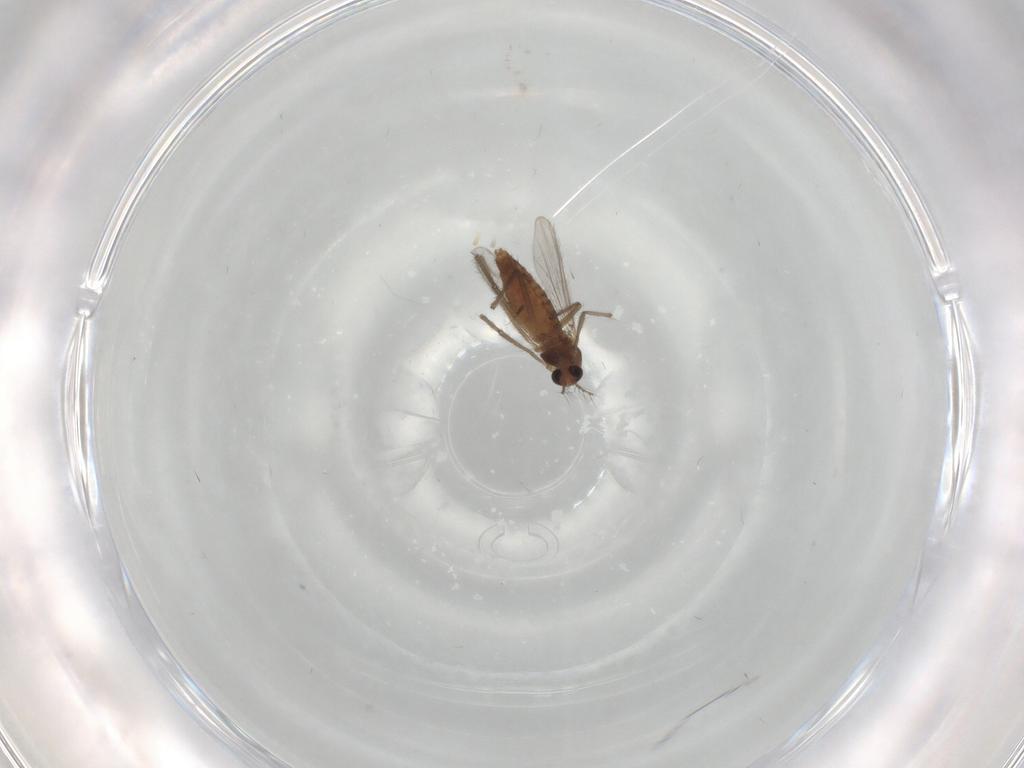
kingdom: Animalia
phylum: Arthropoda
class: Insecta
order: Diptera
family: Chironomidae
